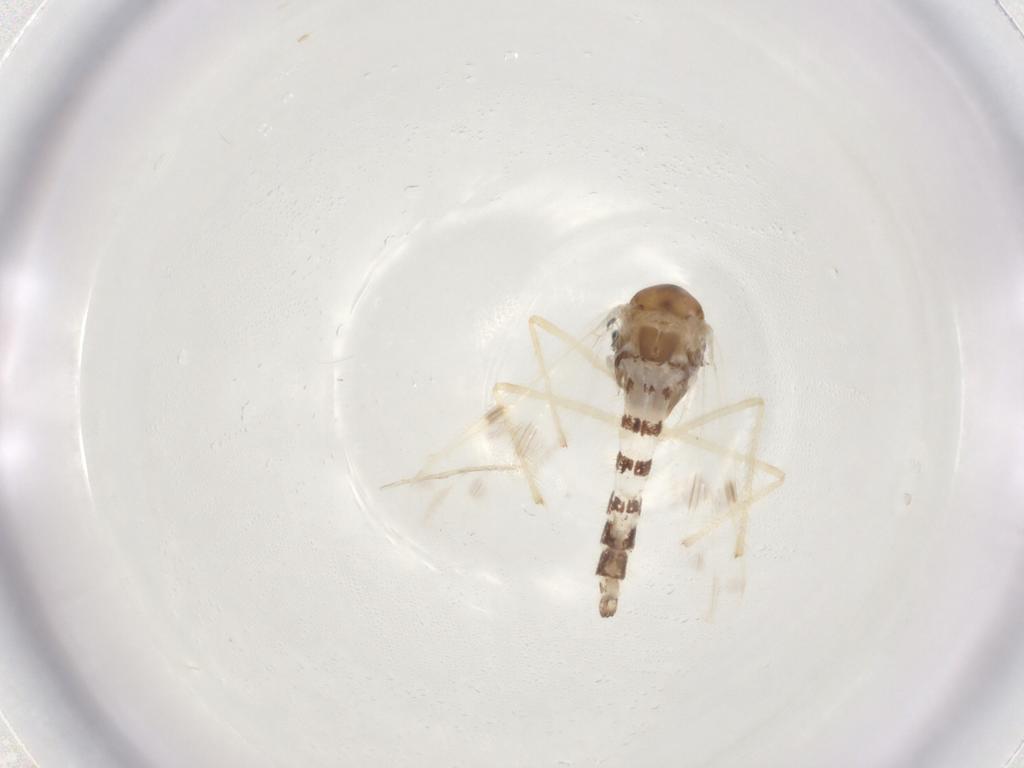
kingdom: Animalia
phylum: Arthropoda
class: Insecta
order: Diptera
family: Chironomidae
